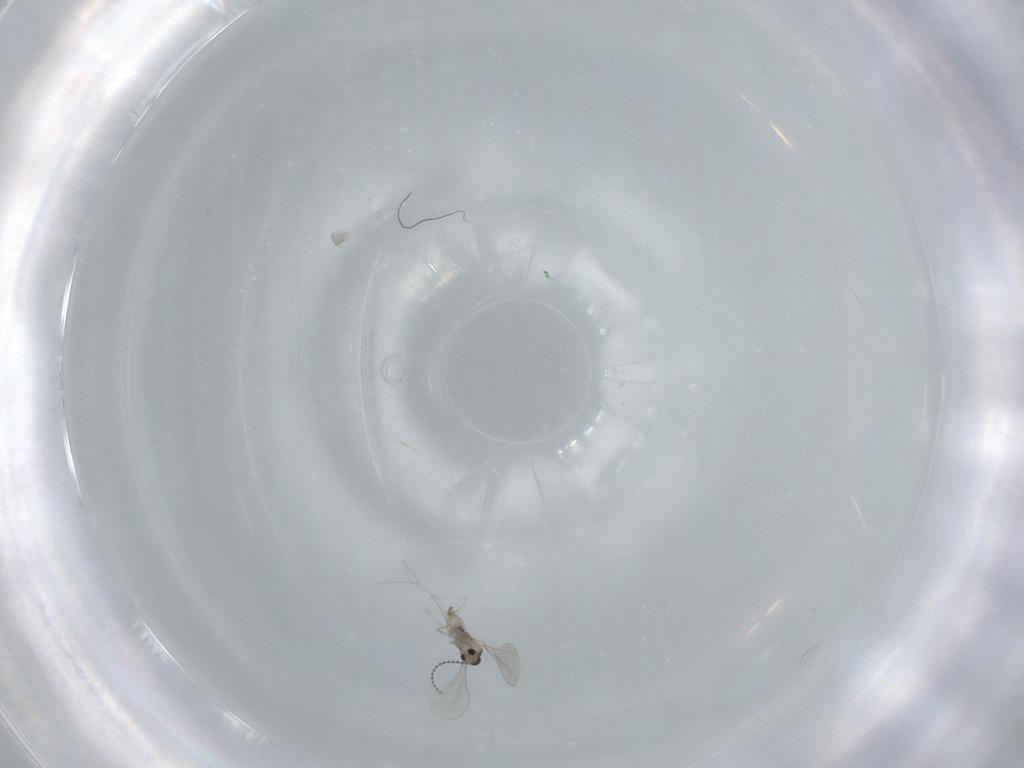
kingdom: Animalia
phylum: Arthropoda
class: Insecta
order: Diptera
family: Cecidomyiidae
